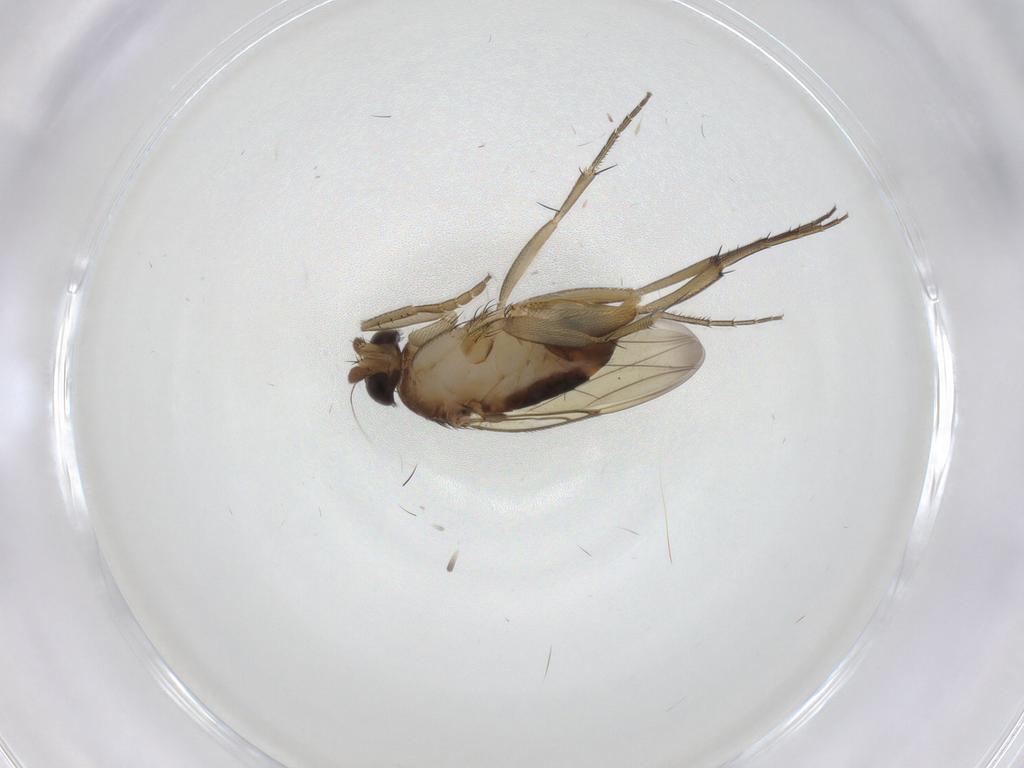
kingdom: Animalia
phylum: Arthropoda
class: Insecta
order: Diptera
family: Phoridae
